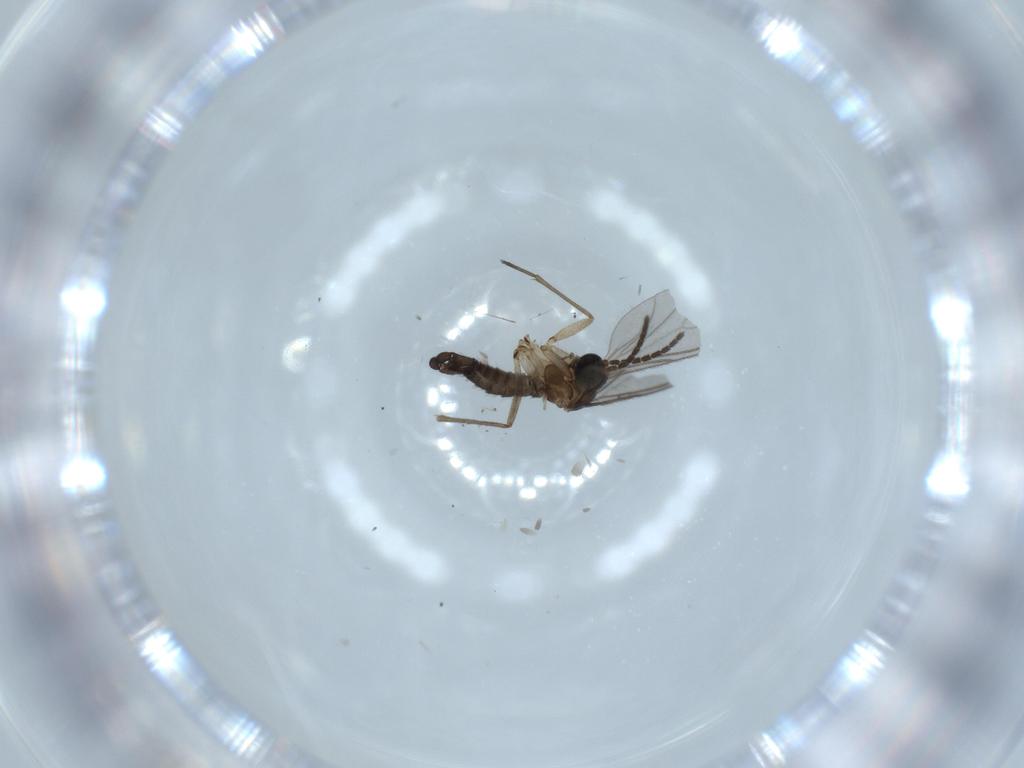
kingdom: Animalia
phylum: Arthropoda
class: Insecta
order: Diptera
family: Sciaridae
